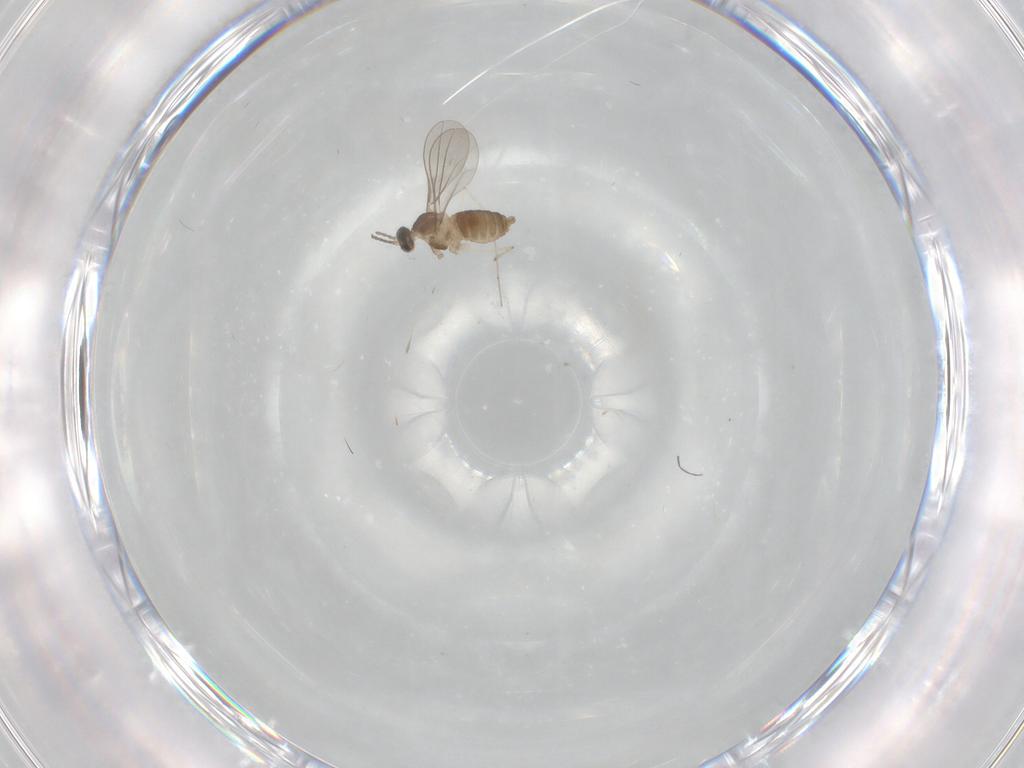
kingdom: Animalia
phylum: Arthropoda
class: Insecta
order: Diptera
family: Cecidomyiidae
